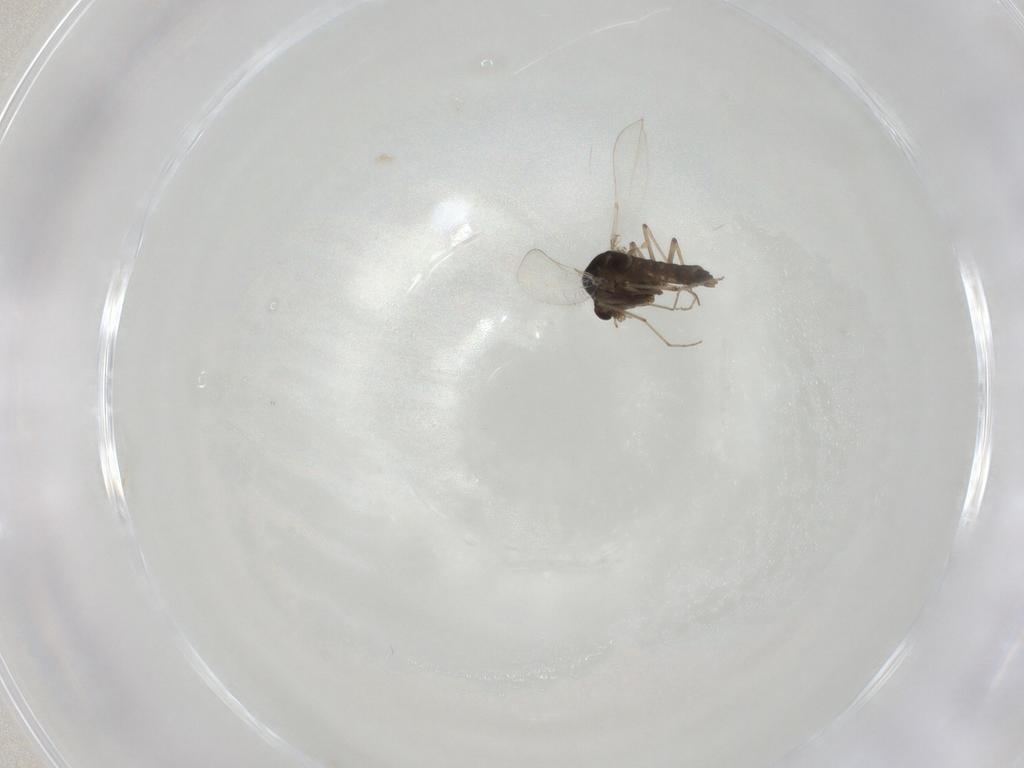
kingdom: Animalia
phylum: Arthropoda
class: Insecta
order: Diptera
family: Chironomidae
